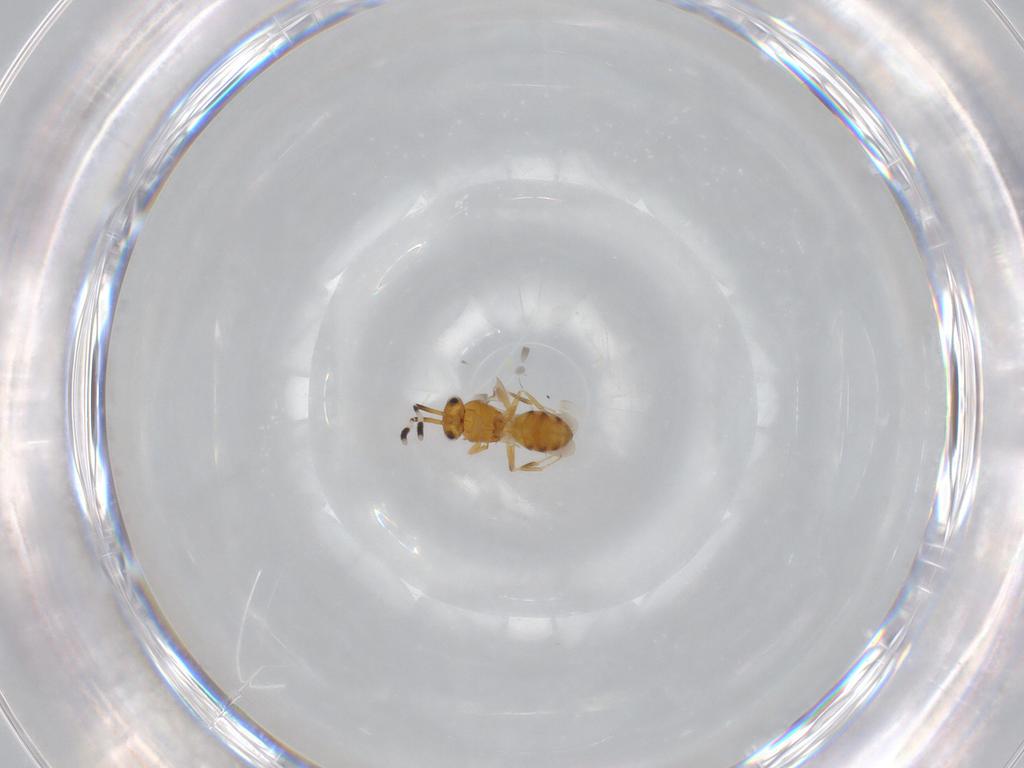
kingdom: Animalia
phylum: Arthropoda
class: Insecta
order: Hymenoptera
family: Scelionidae
